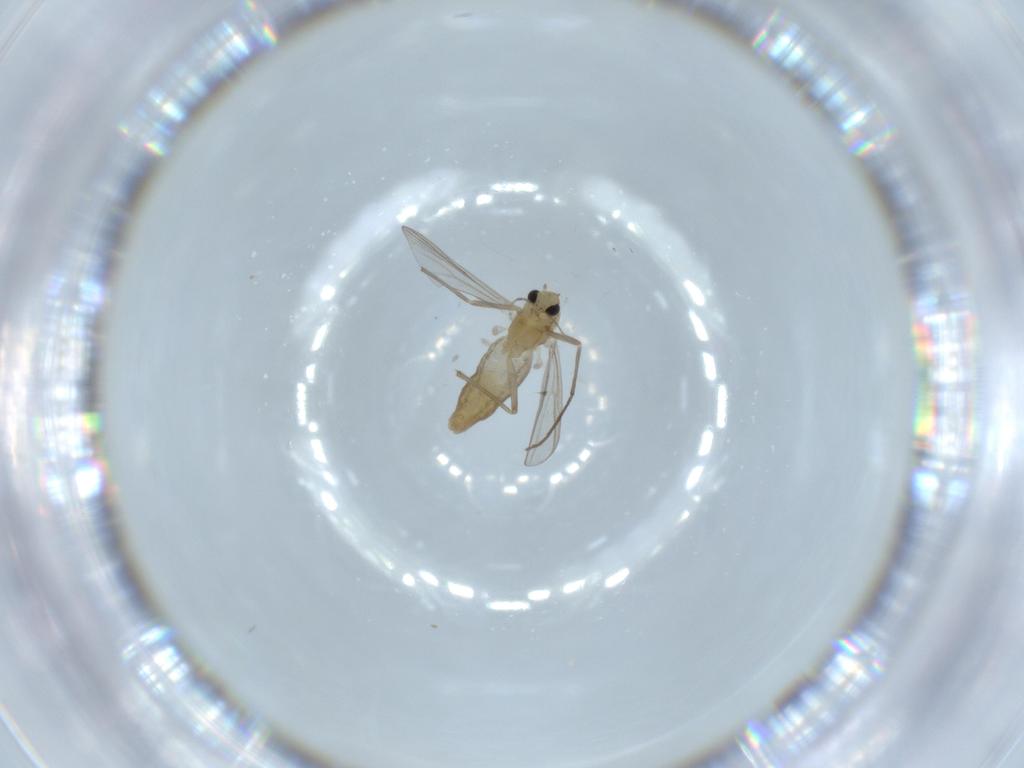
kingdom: Animalia
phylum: Arthropoda
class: Insecta
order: Diptera
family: Chironomidae
